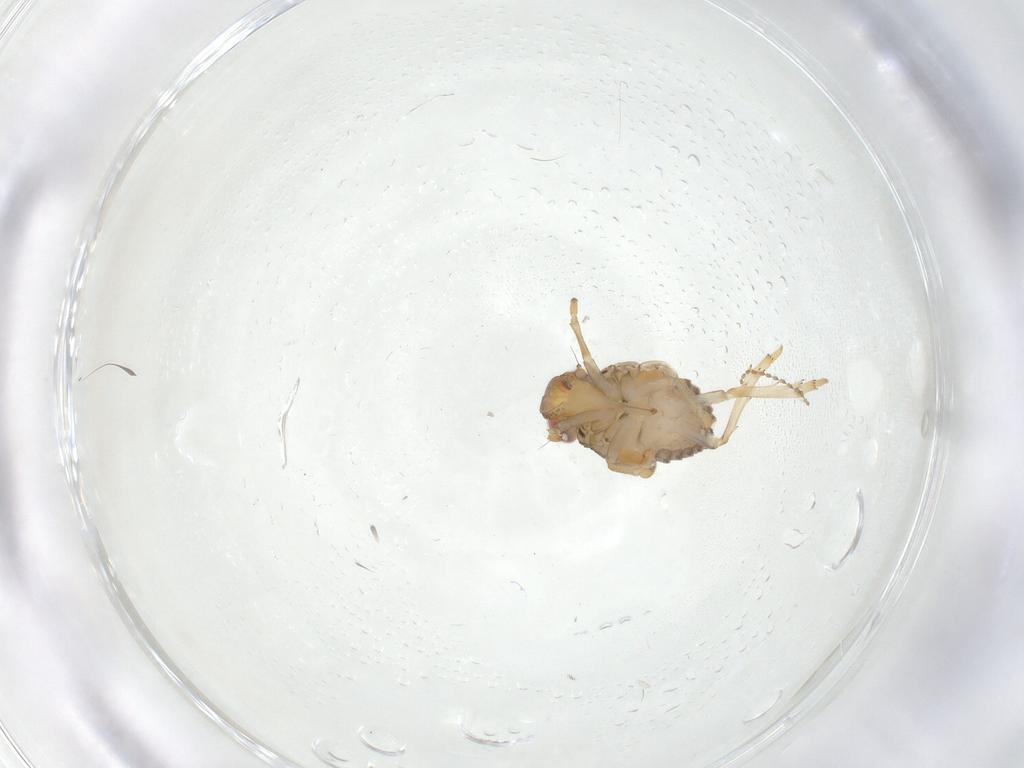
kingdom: Animalia
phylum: Arthropoda
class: Insecta
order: Hemiptera
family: Issidae
